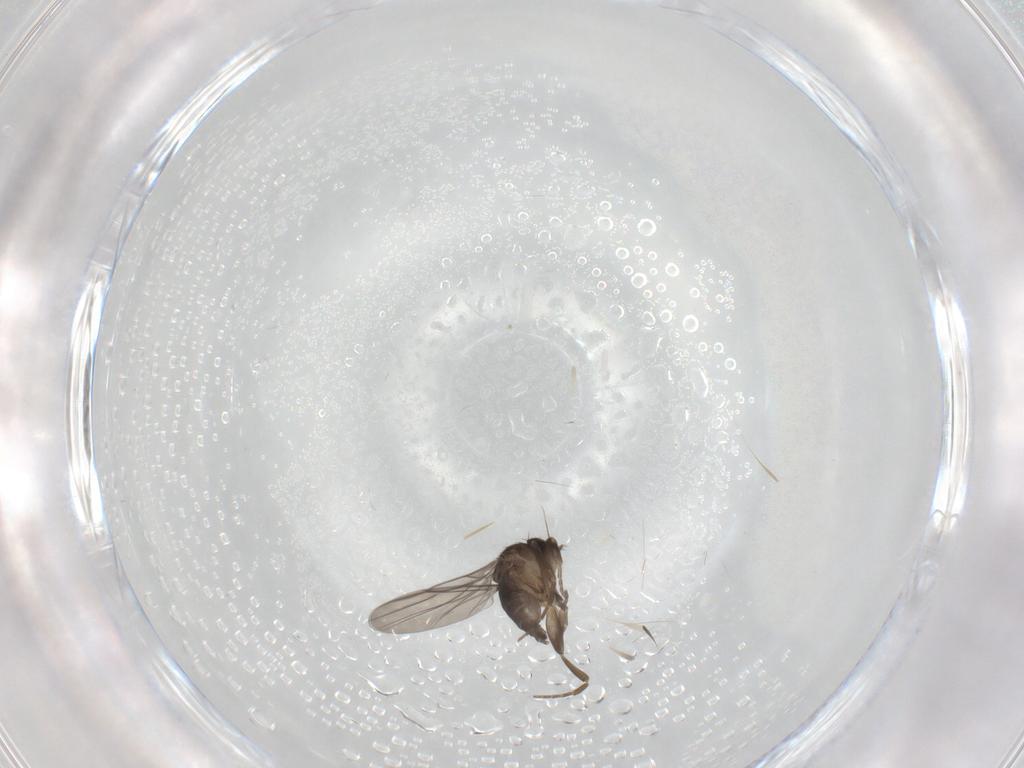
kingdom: Animalia
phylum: Arthropoda
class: Insecta
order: Diptera
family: Phoridae
